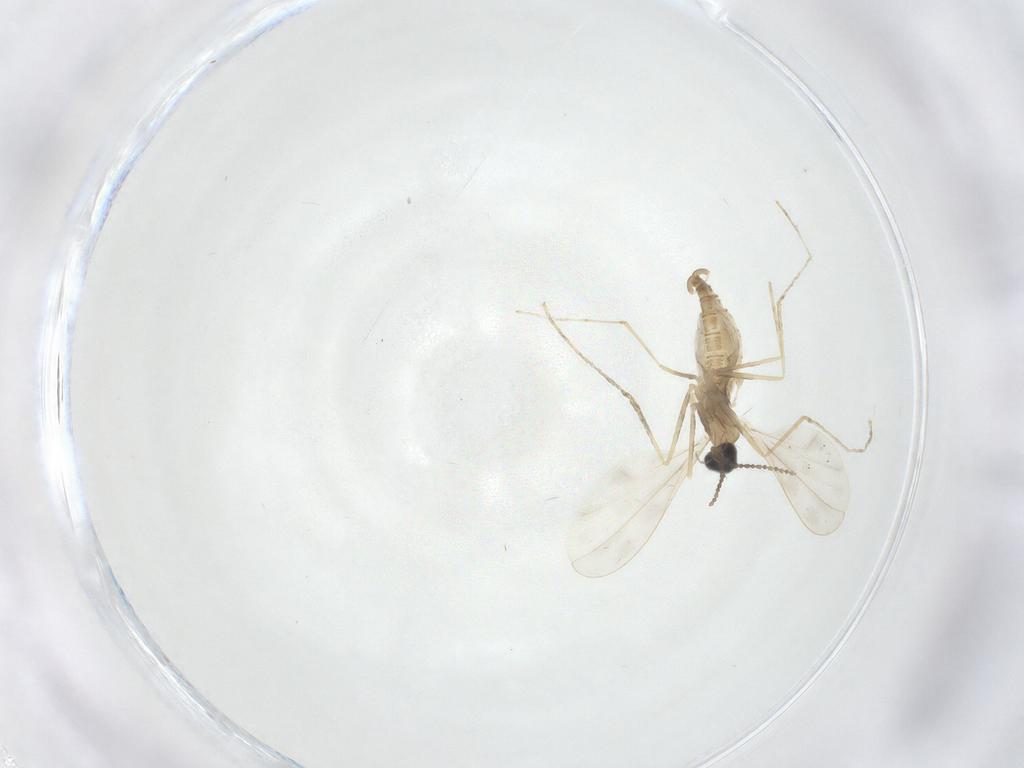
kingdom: Animalia
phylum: Arthropoda
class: Insecta
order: Diptera
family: Cecidomyiidae
